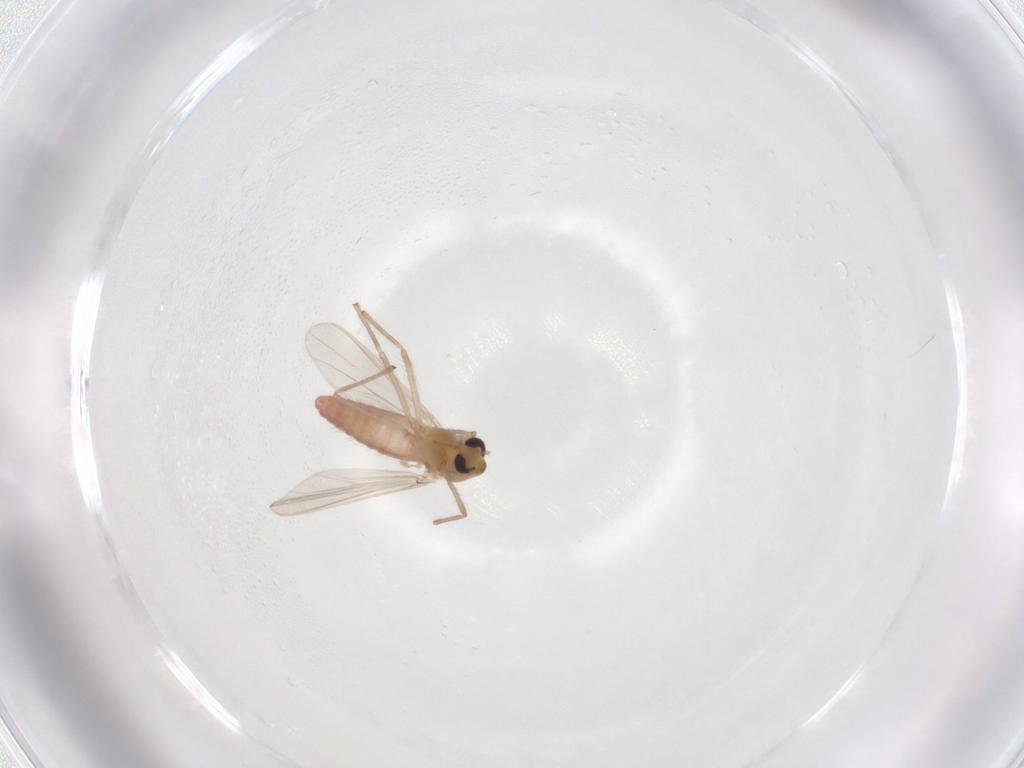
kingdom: Animalia
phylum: Arthropoda
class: Insecta
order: Diptera
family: Chironomidae
